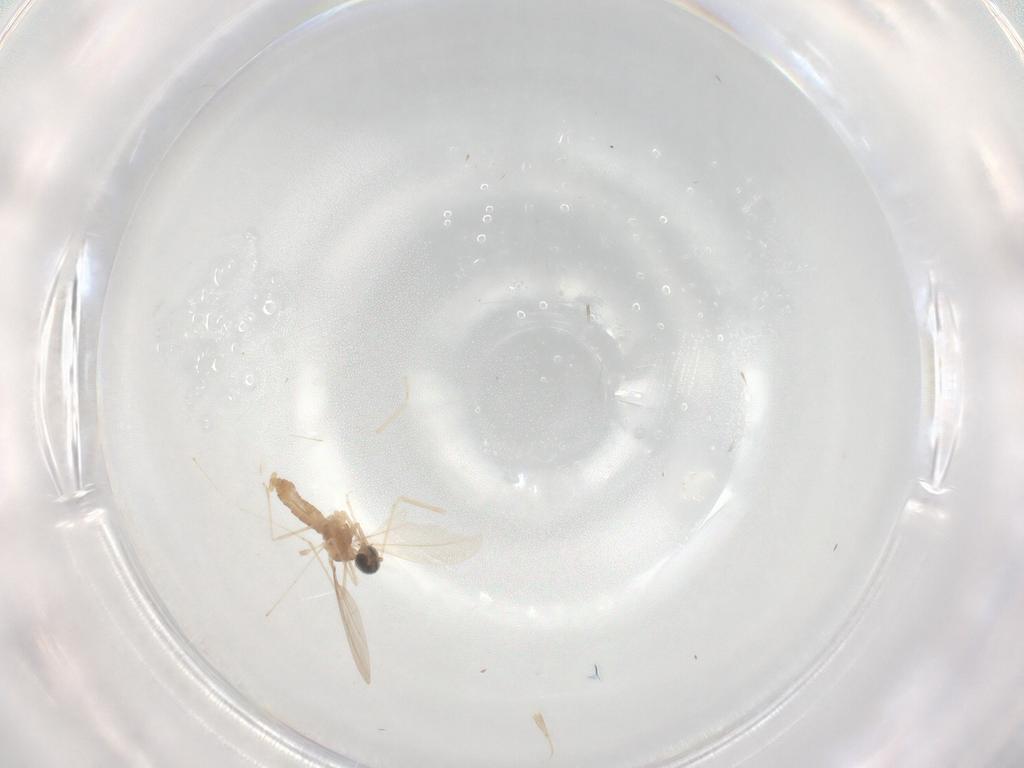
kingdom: Animalia
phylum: Arthropoda
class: Insecta
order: Diptera
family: Cecidomyiidae
